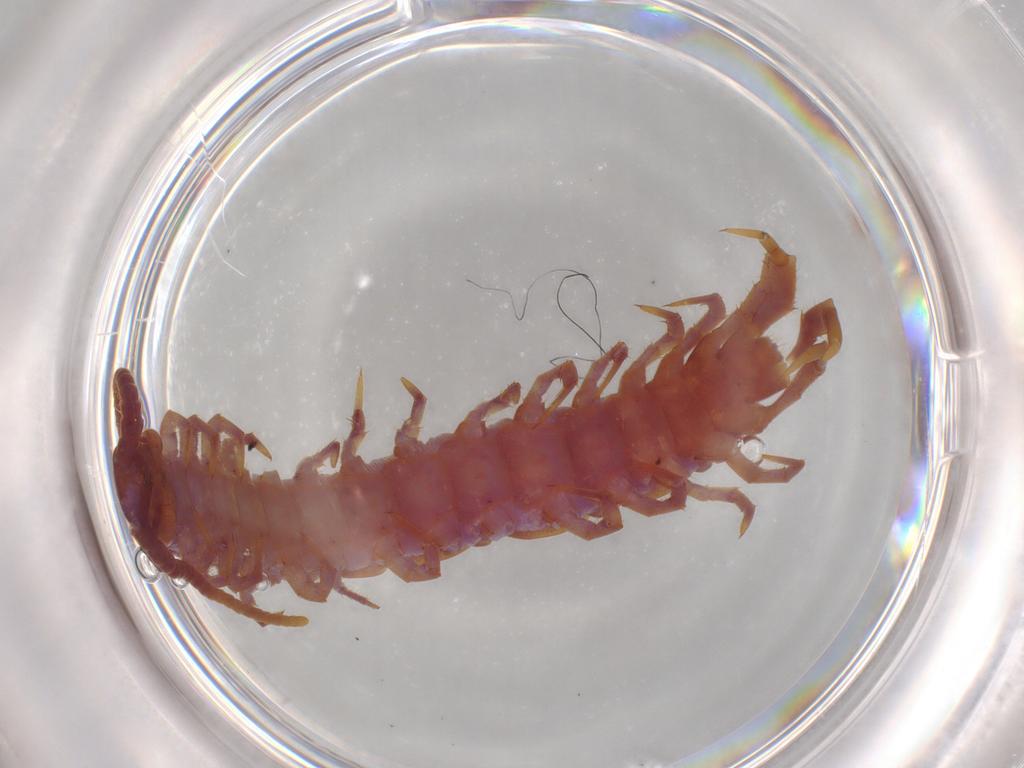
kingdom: Animalia
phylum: Arthropoda
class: Chilopoda
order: Lithobiomorpha
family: Lithobiidae
